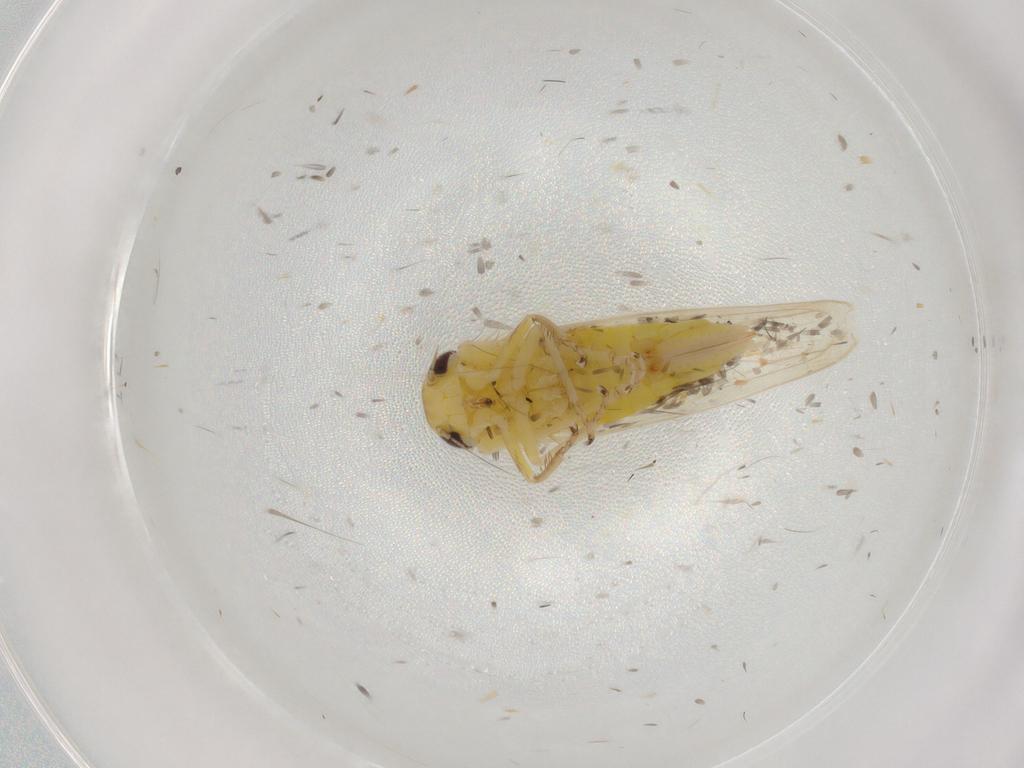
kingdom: Animalia
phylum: Arthropoda
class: Insecta
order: Hemiptera
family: Cicadellidae
